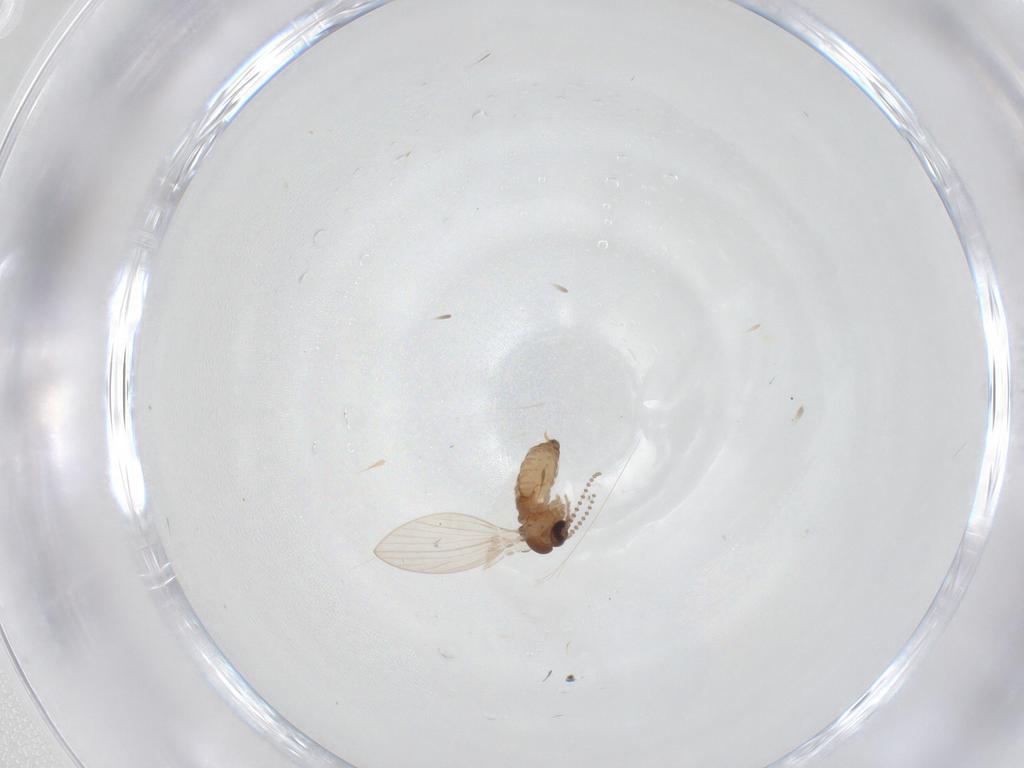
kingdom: Animalia
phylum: Arthropoda
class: Insecta
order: Diptera
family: Psychodidae
